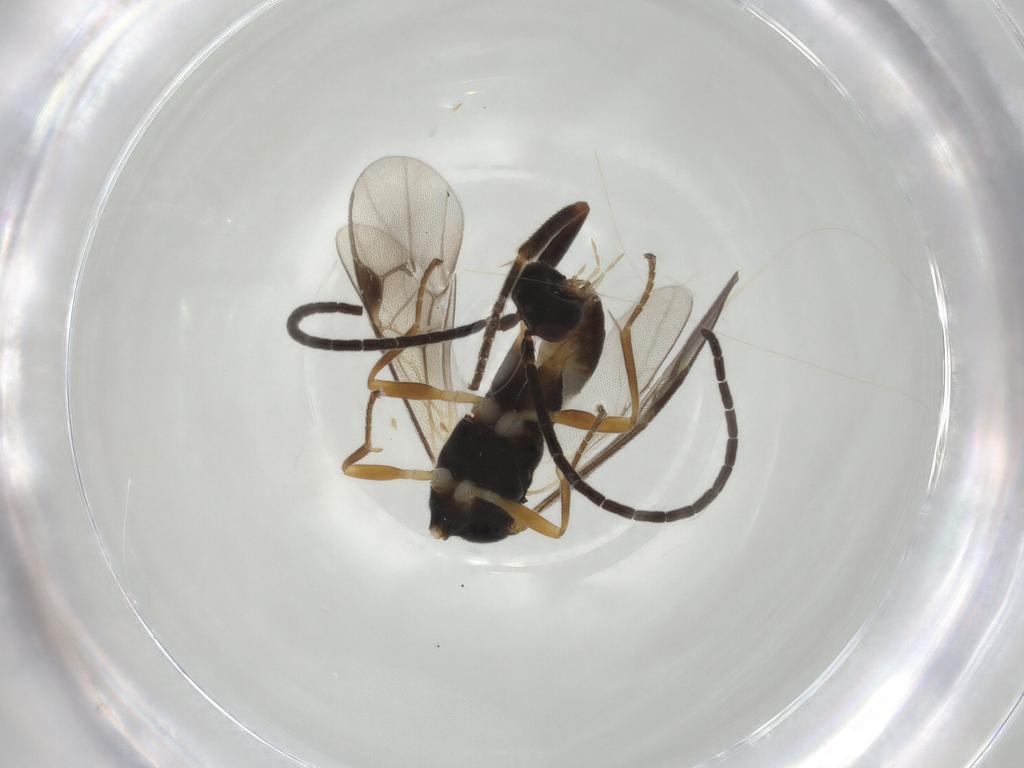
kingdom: Animalia
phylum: Arthropoda
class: Insecta
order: Hymenoptera
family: Braconidae
